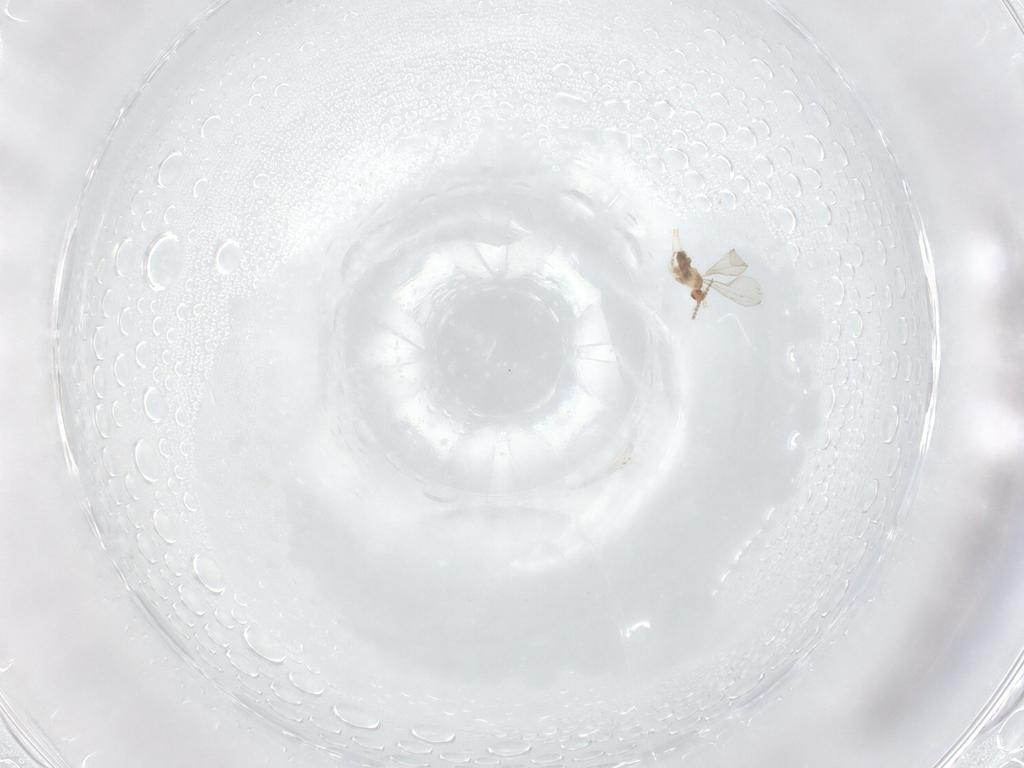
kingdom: Animalia
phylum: Arthropoda
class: Insecta
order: Diptera
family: Cecidomyiidae
